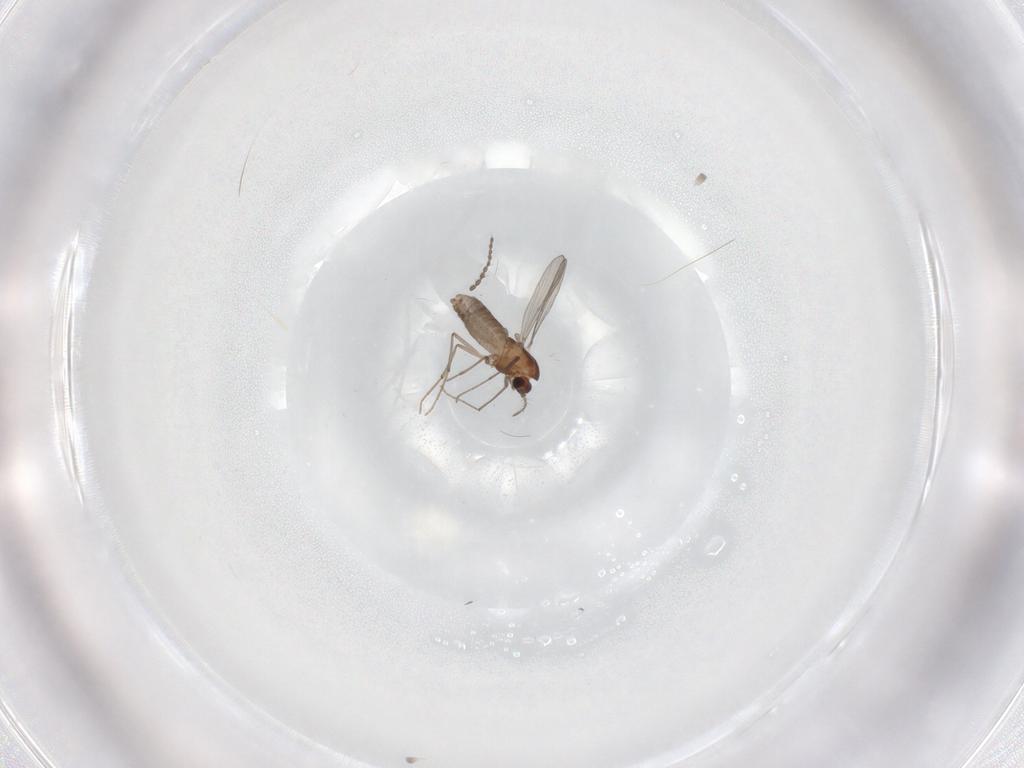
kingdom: Animalia
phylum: Arthropoda
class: Insecta
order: Diptera
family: Chironomidae
